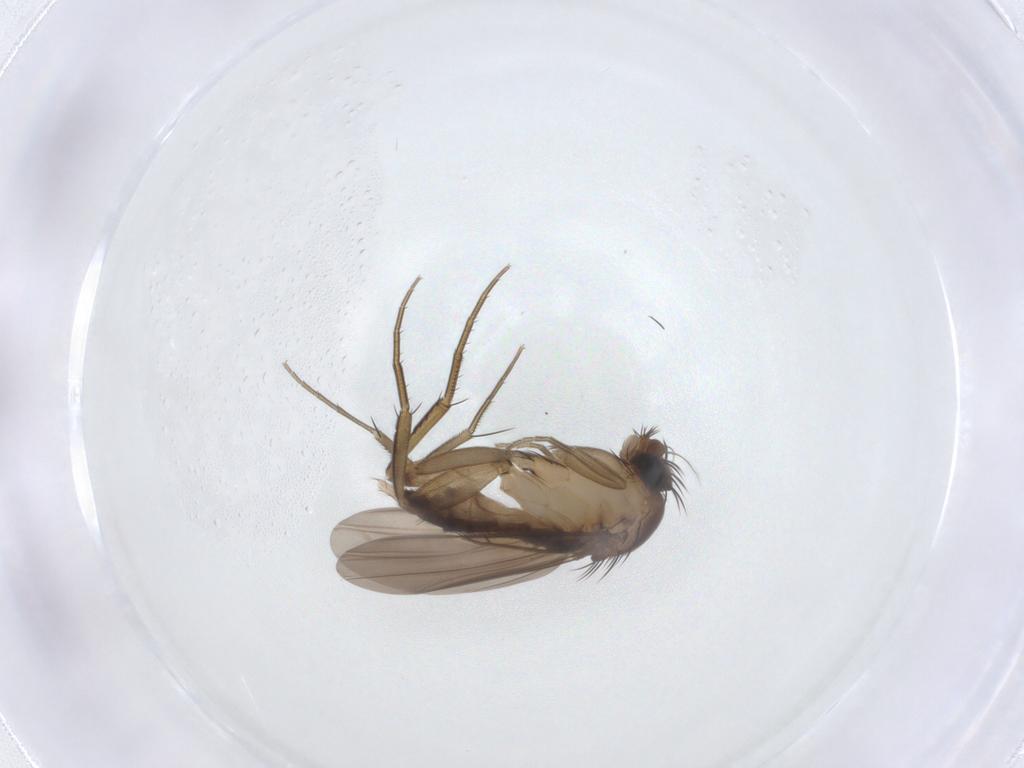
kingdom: Animalia
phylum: Arthropoda
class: Insecta
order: Diptera
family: Phoridae
